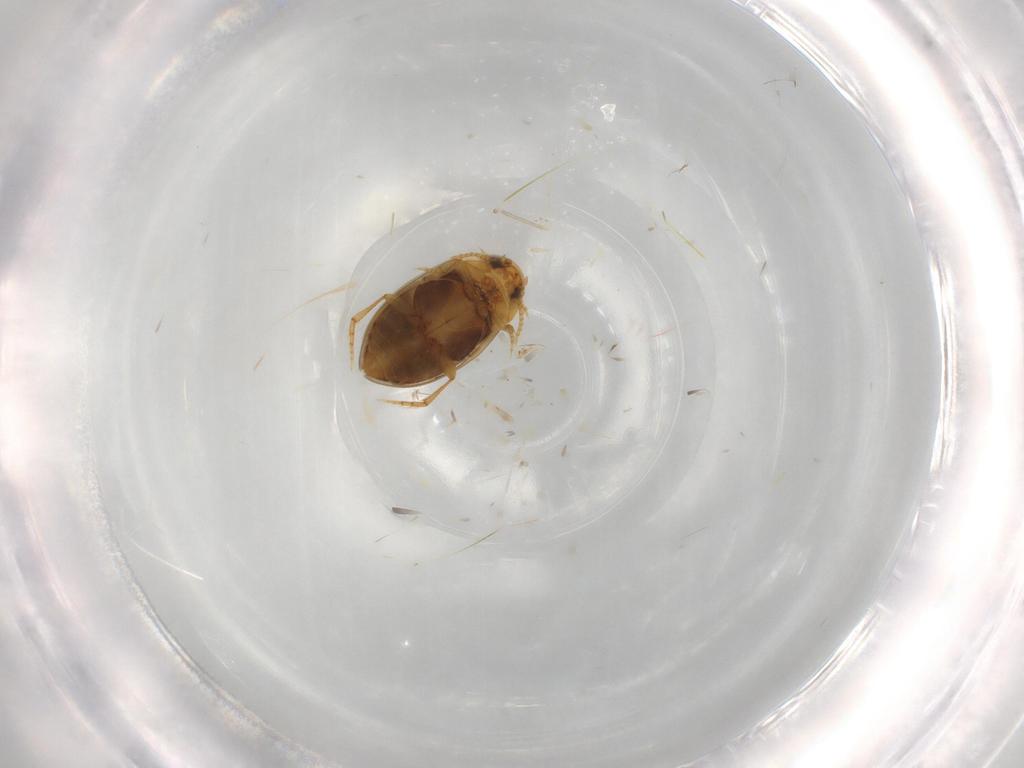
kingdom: Animalia
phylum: Arthropoda
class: Insecta
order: Coleoptera
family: Dytiscidae
